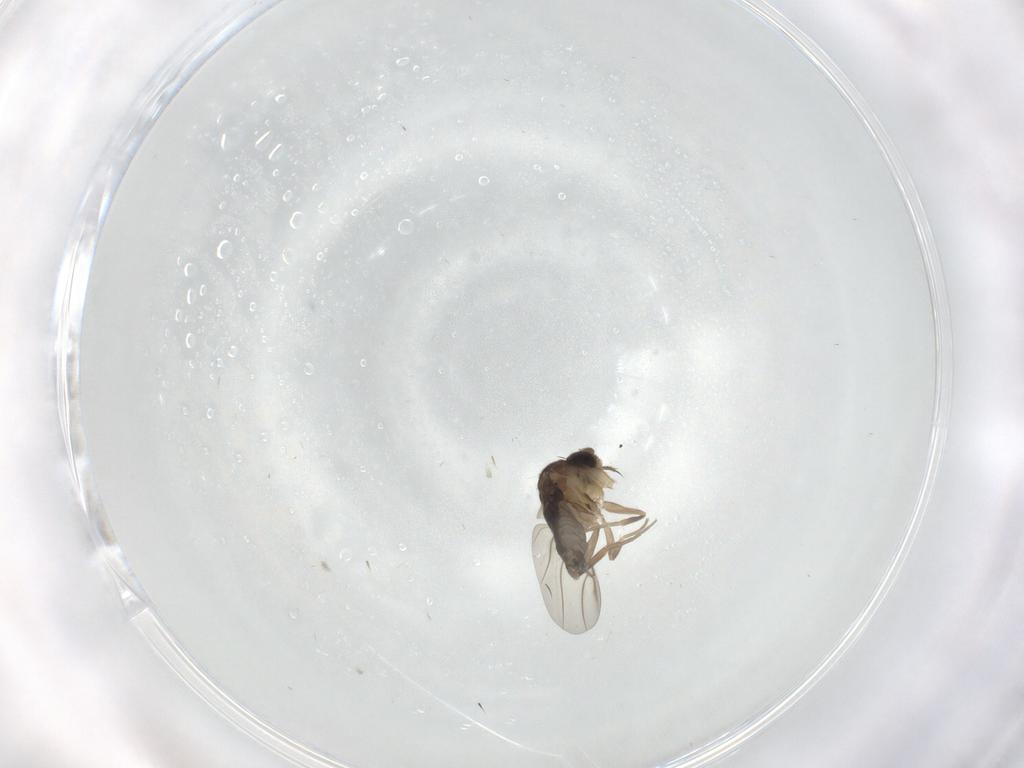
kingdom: Animalia
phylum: Arthropoda
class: Insecta
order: Diptera
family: Phoridae
